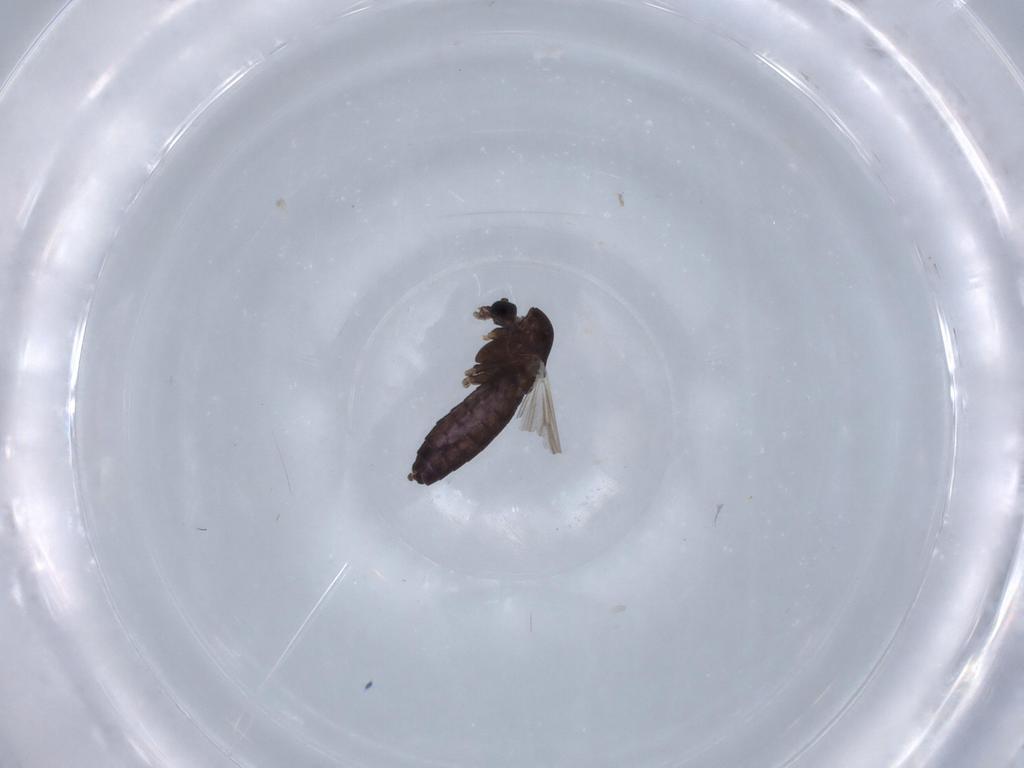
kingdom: Animalia
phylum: Arthropoda
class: Insecta
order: Diptera
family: Chironomidae
